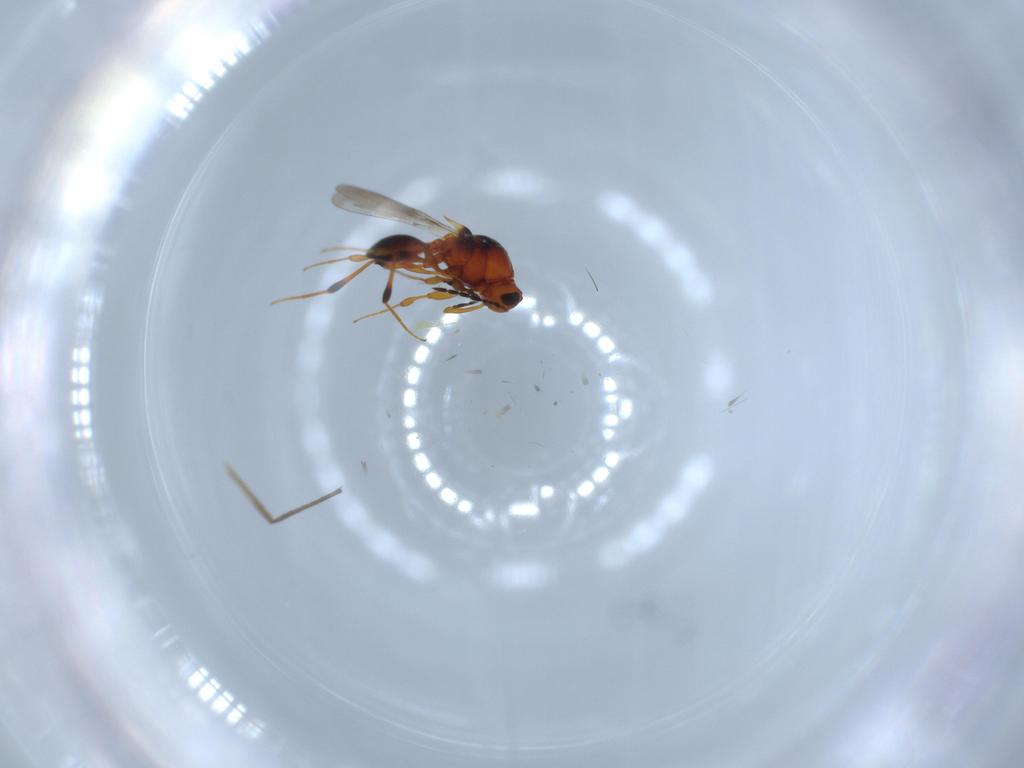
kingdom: Animalia
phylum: Arthropoda
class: Insecta
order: Hymenoptera
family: Platygastridae
